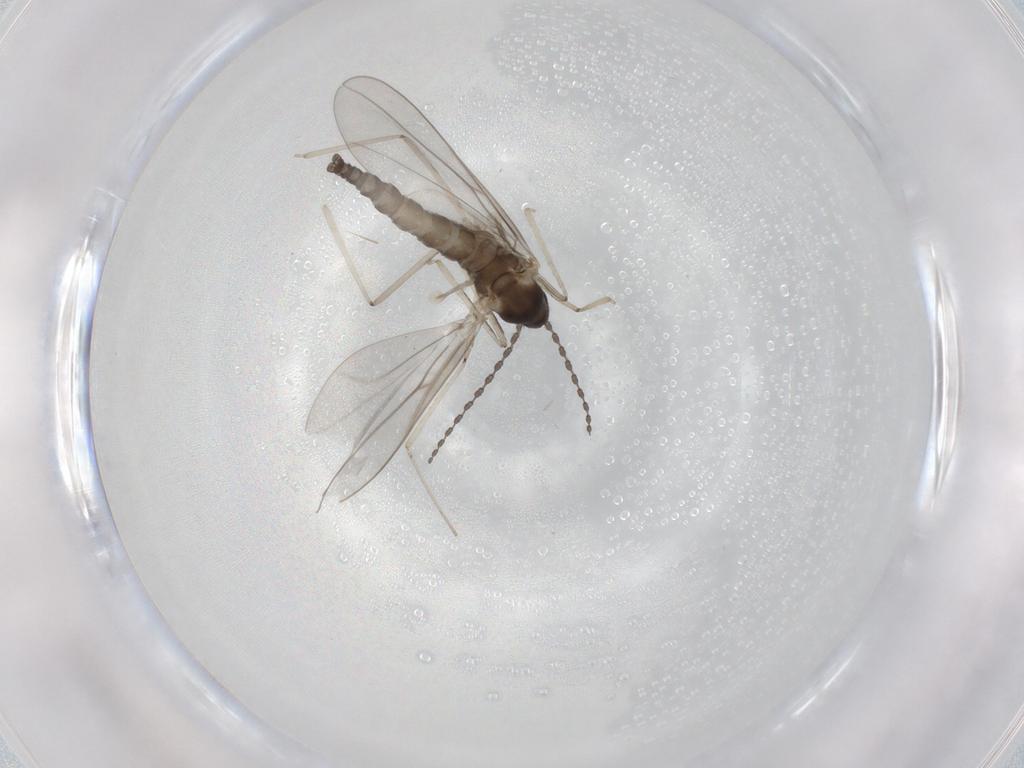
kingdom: Animalia
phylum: Arthropoda
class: Insecta
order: Diptera
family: Cecidomyiidae
